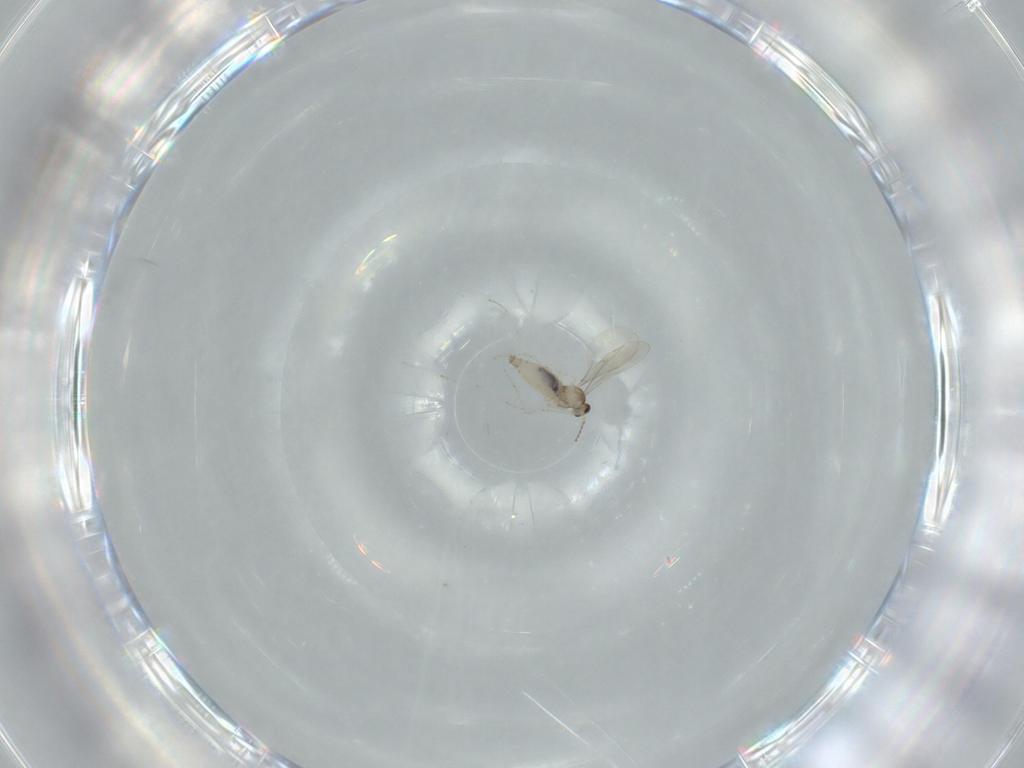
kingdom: Animalia
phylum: Arthropoda
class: Insecta
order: Diptera
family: Cecidomyiidae
